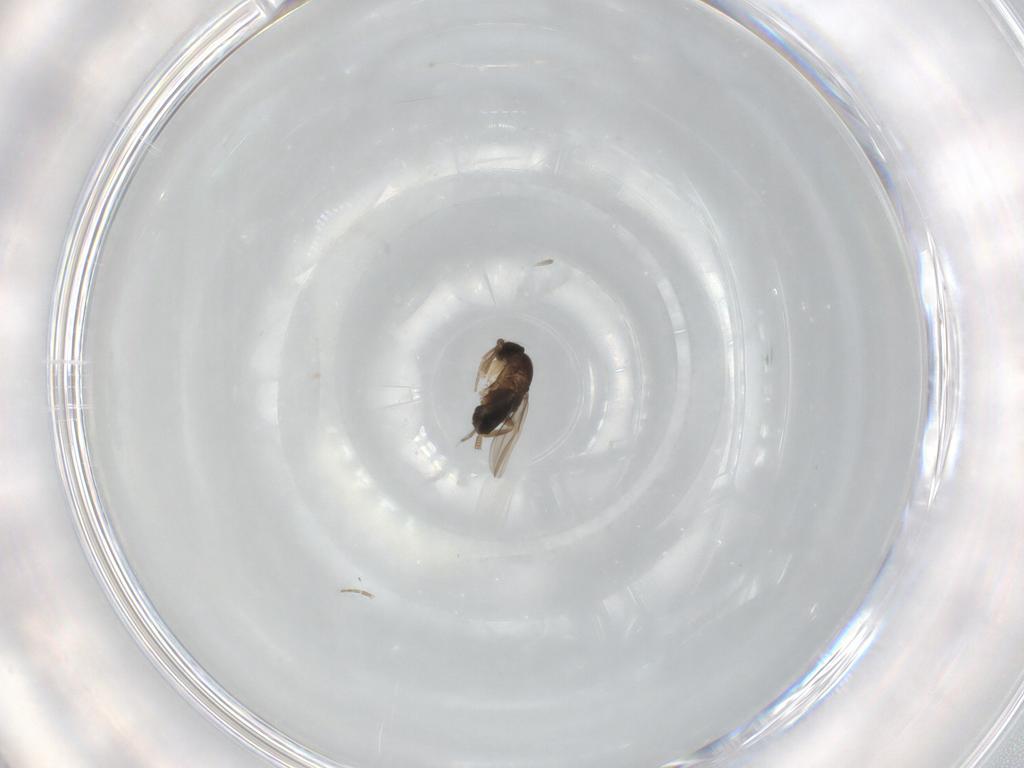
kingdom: Animalia
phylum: Arthropoda
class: Insecta
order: Diptera
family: Phoridae
